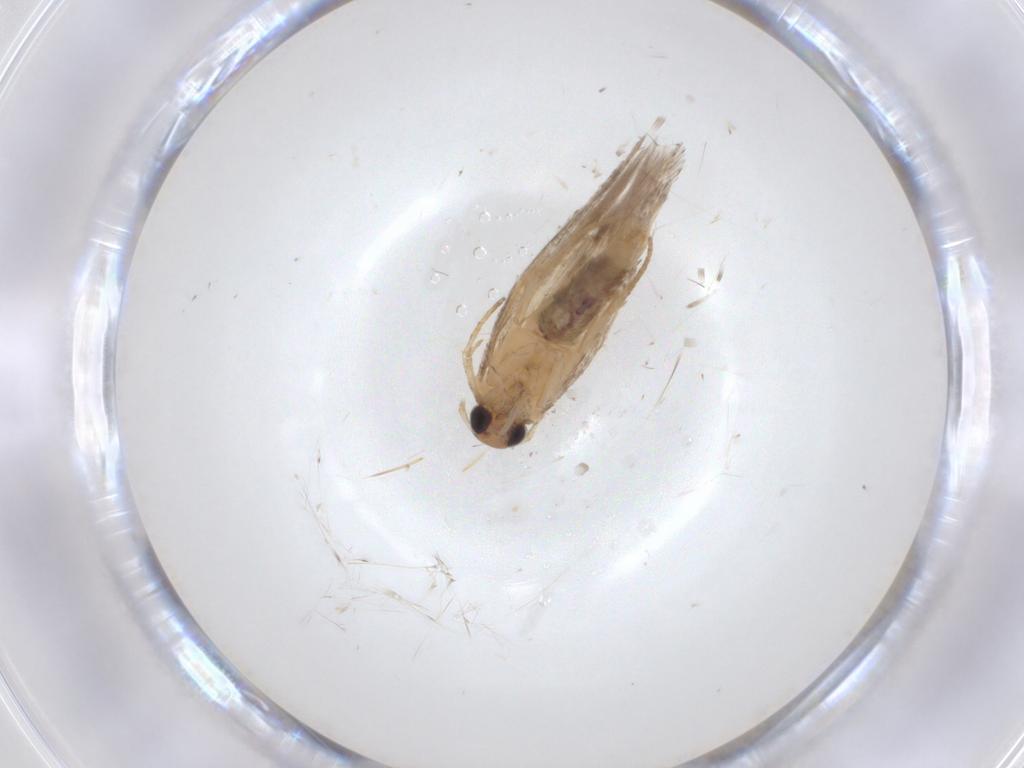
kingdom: Animalia
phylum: Arthropoda
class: Insecta
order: Lepidoptera
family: Gelechiidae
